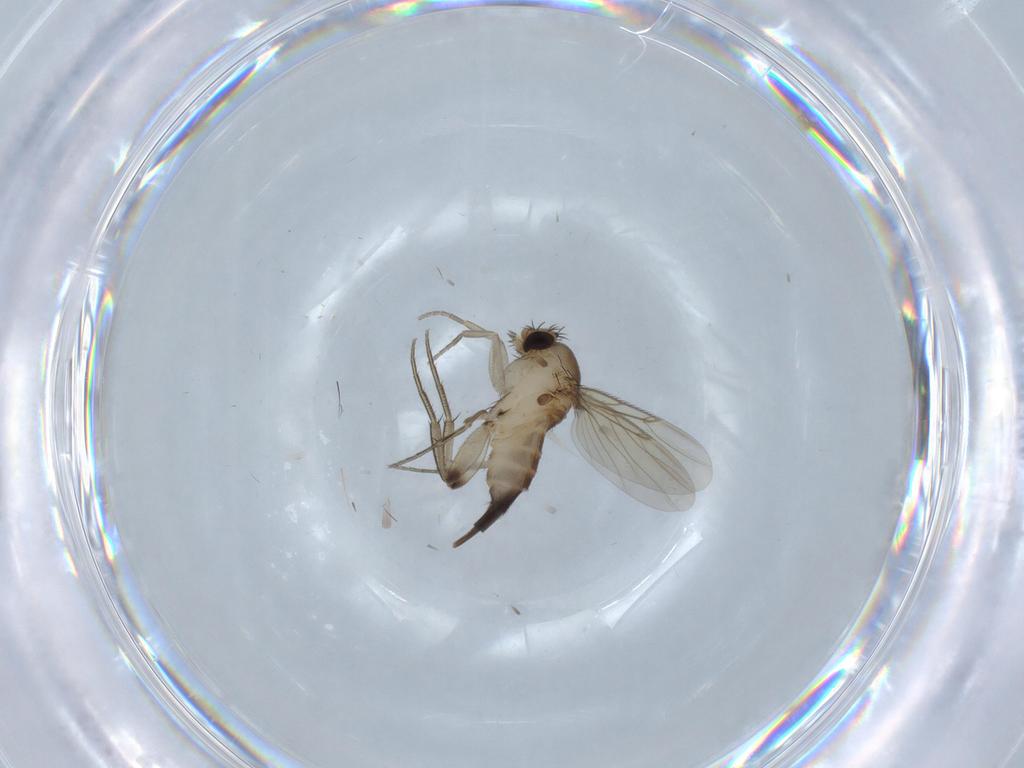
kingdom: Animalia
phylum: Arthropoda
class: Insecta
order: Diptera
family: Phoridae
